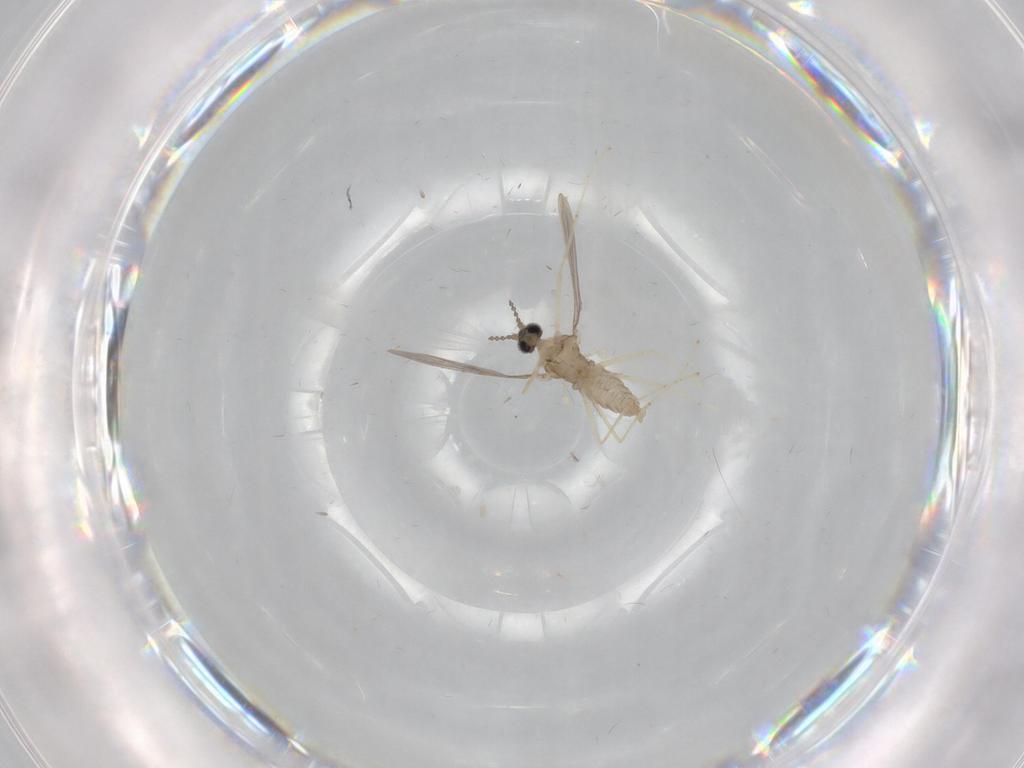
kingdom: Animalia
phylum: Arthropoda
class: Insecta
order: Diptera
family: Cecidomyiidae
